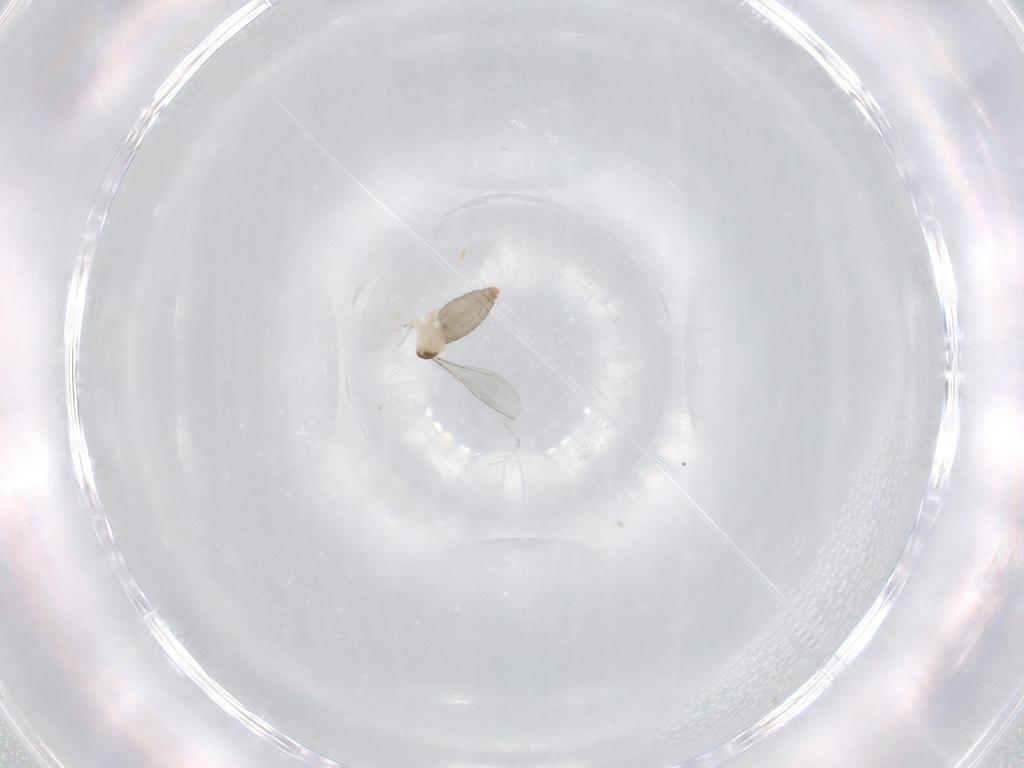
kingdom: Animalia
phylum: Arthropoda
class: Insecta
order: Diptera
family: Cecidomyiidae
